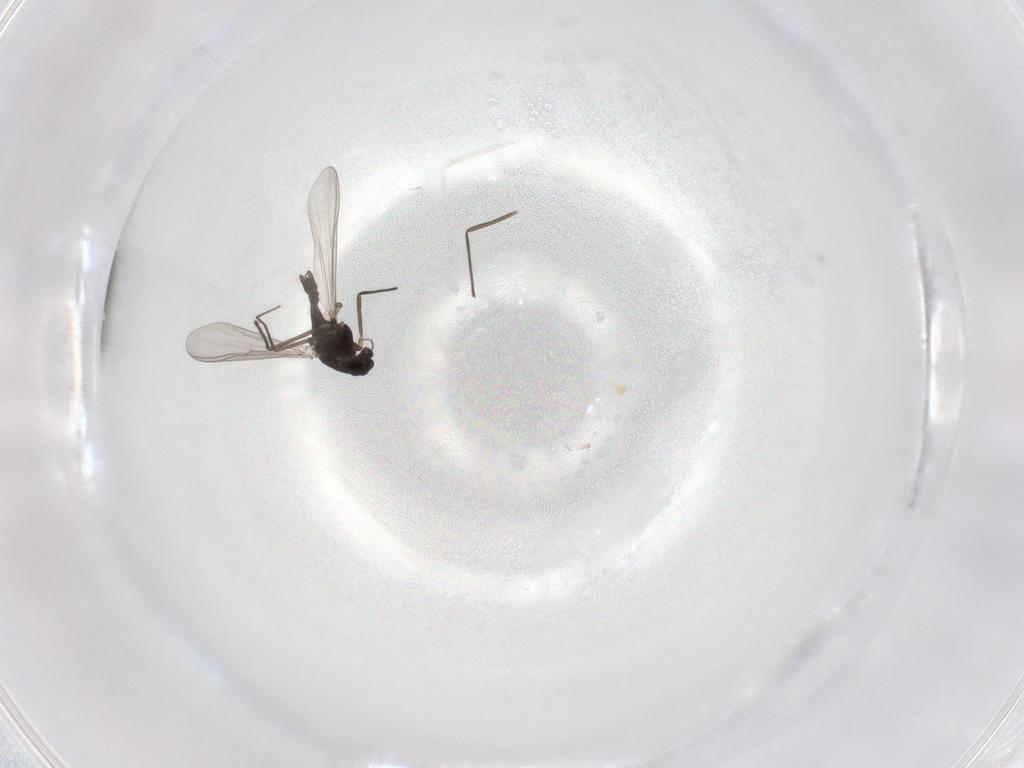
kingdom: Animalia
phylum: Arthropoda
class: Insecta
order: Diptera
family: Chironomidae
